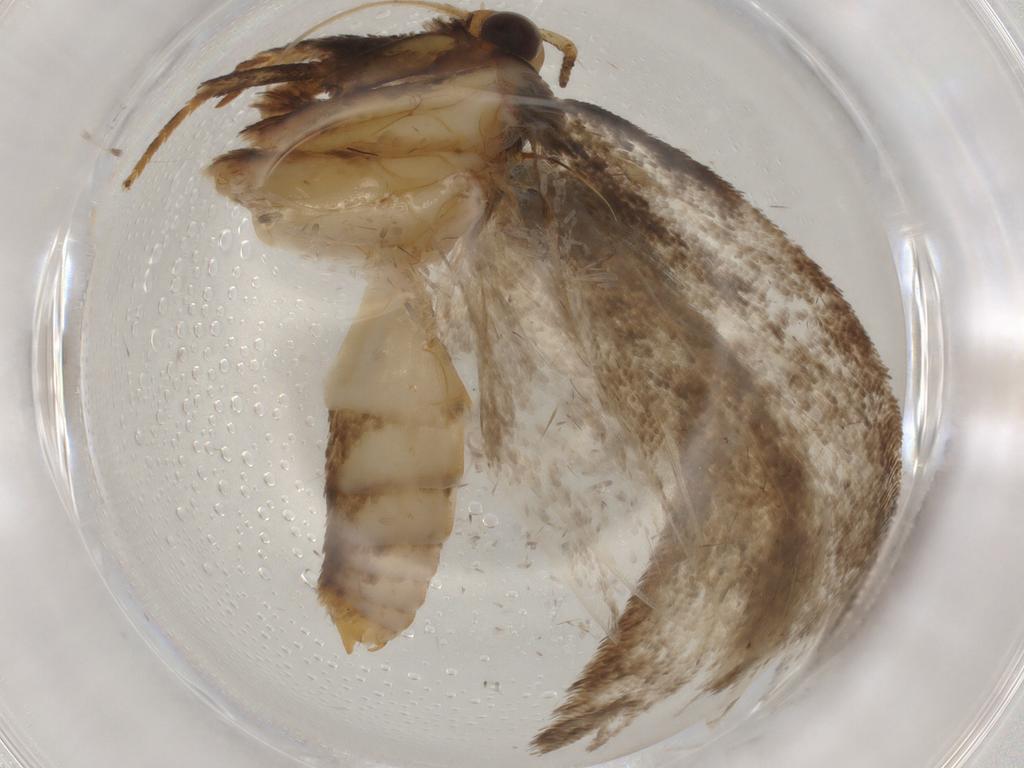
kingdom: Animalia
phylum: Arthropoda
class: Insecta
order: Lepidoptera
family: Oecophoridae
